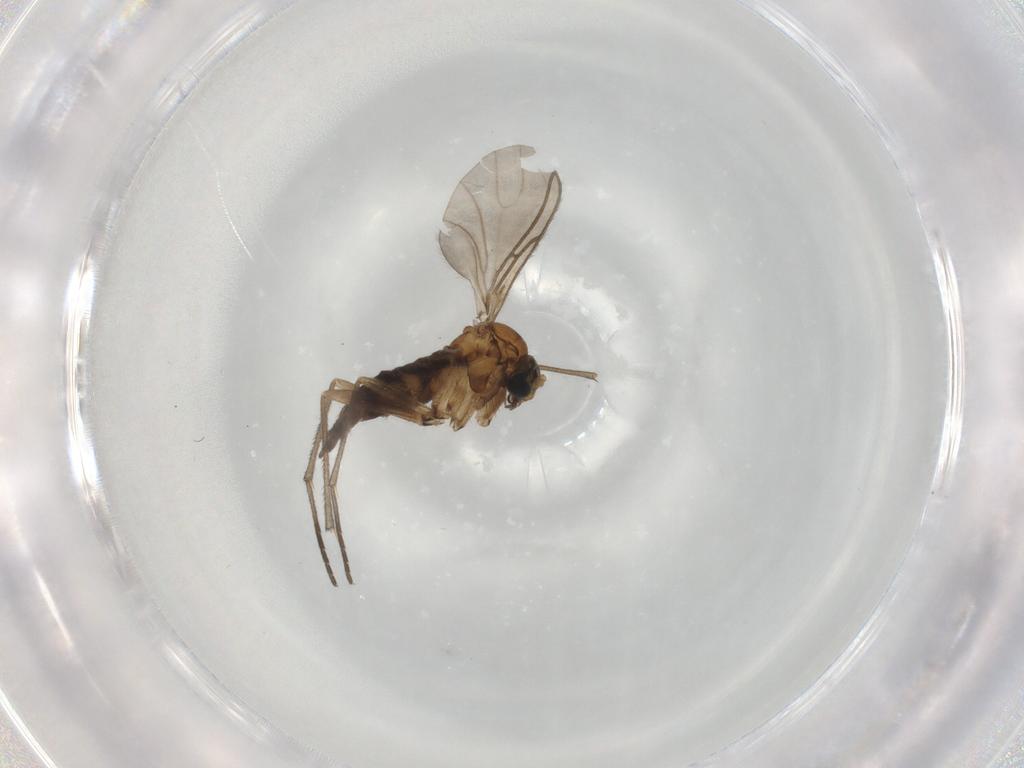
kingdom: Animalia
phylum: Arthropoda
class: Insecta
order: Diptera
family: Sciaridae
